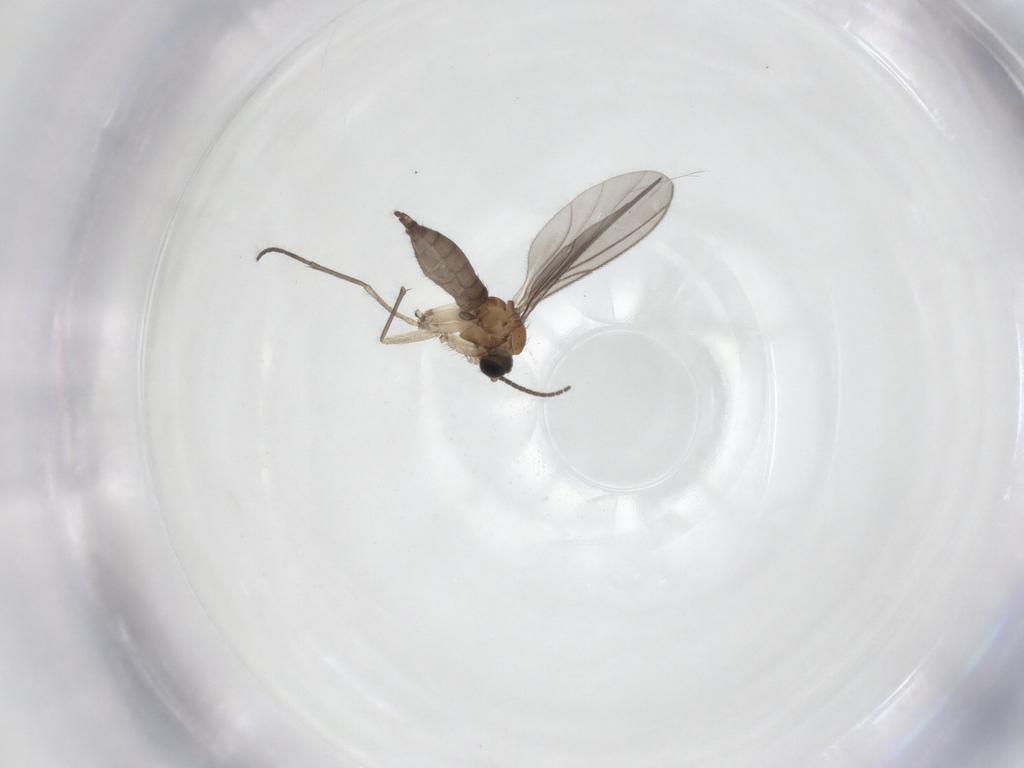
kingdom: Animalia
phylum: Arthropoda
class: Insecta
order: Diptera
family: Sciaridae
